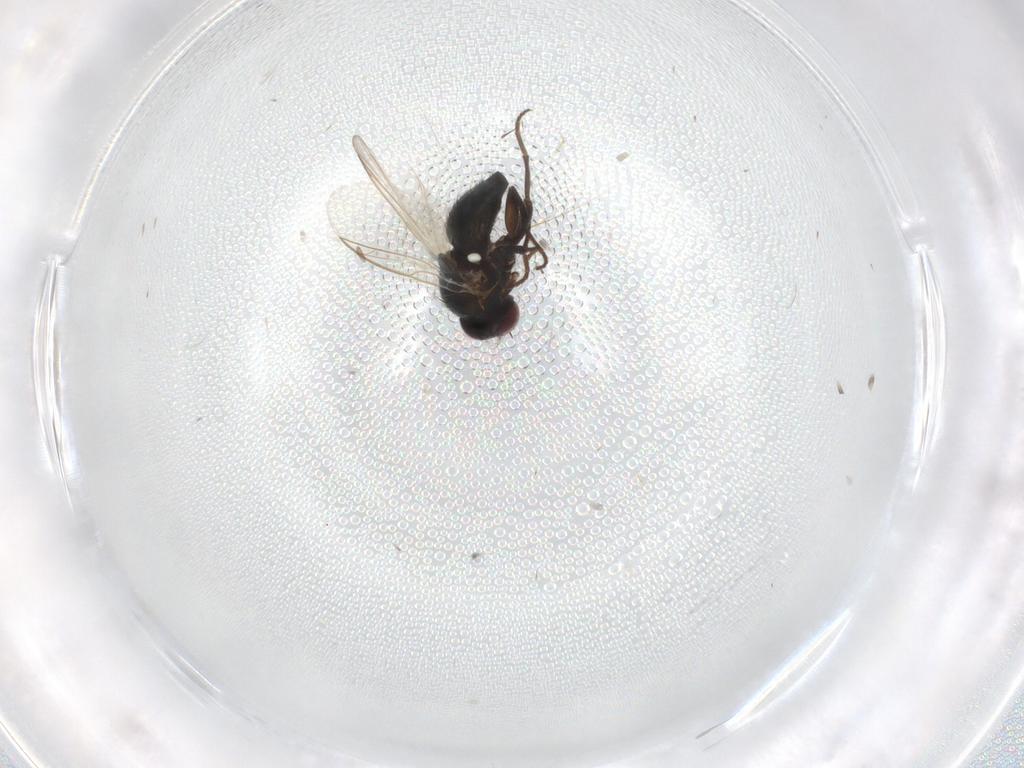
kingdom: Animalia
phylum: Arthropoda
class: Insecta
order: Diptera
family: Agromyzidae
